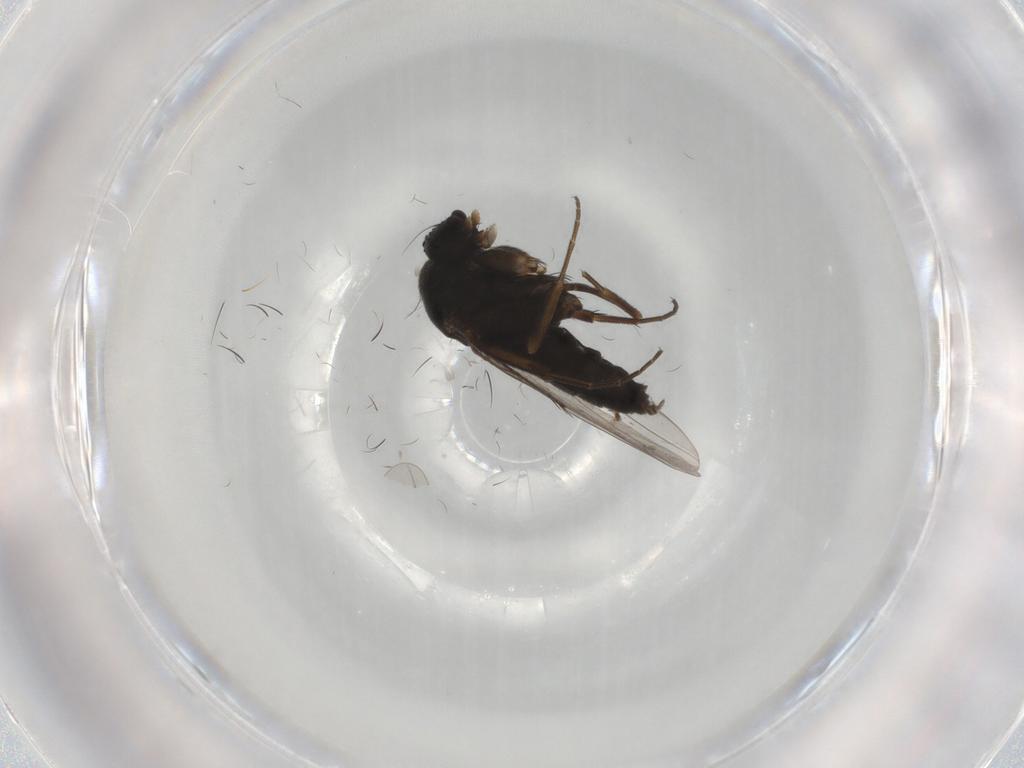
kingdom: Animalia
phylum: Arthropoda
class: Insecta
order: Diptera
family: Phoridae
